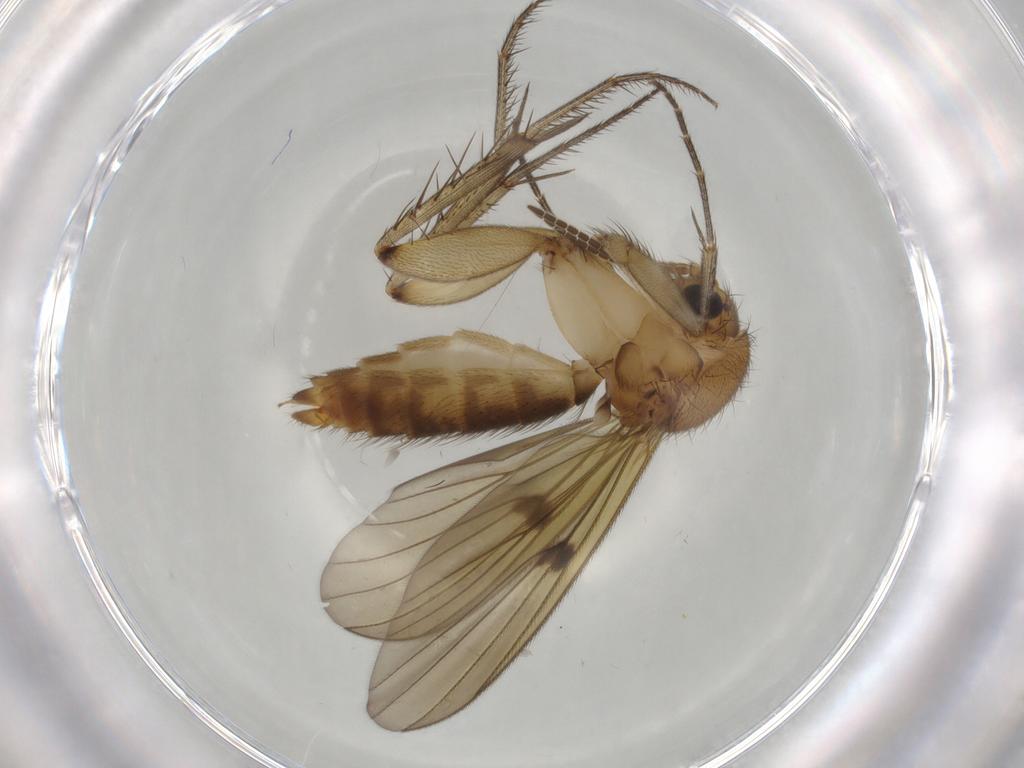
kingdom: Animalia
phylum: Arthropoda
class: Insecta
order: Diptera
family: Mycetophilidae
